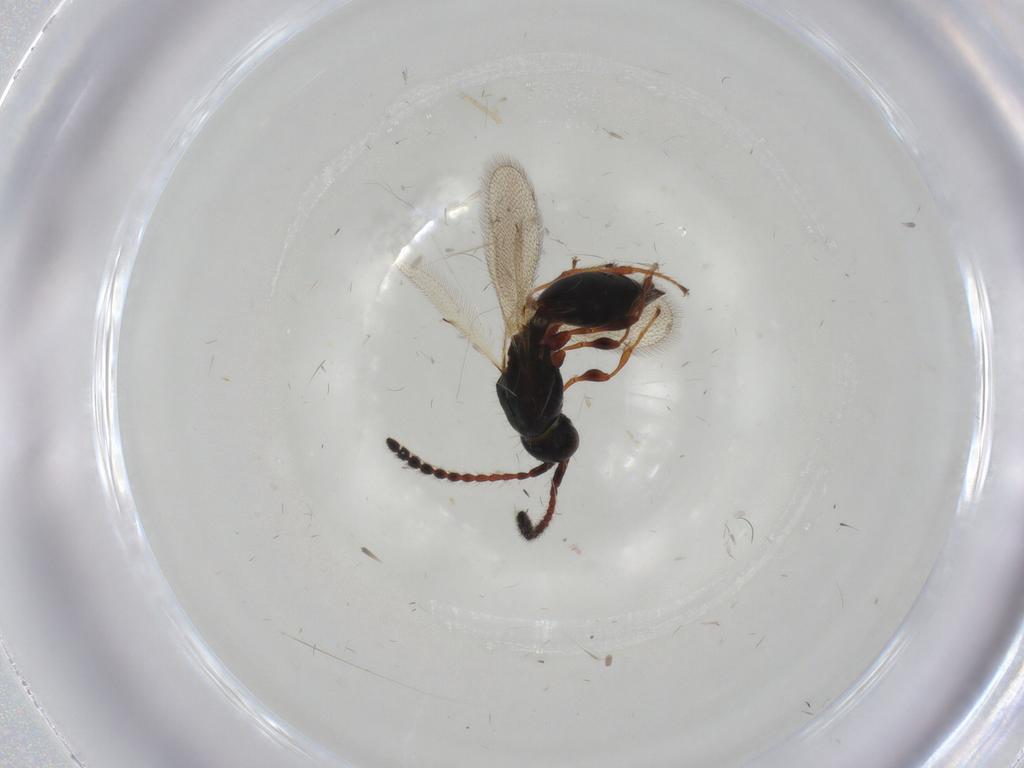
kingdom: Animalia
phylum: Arthropoda
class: Insecta
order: Hymenoptera
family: Diapriidae
